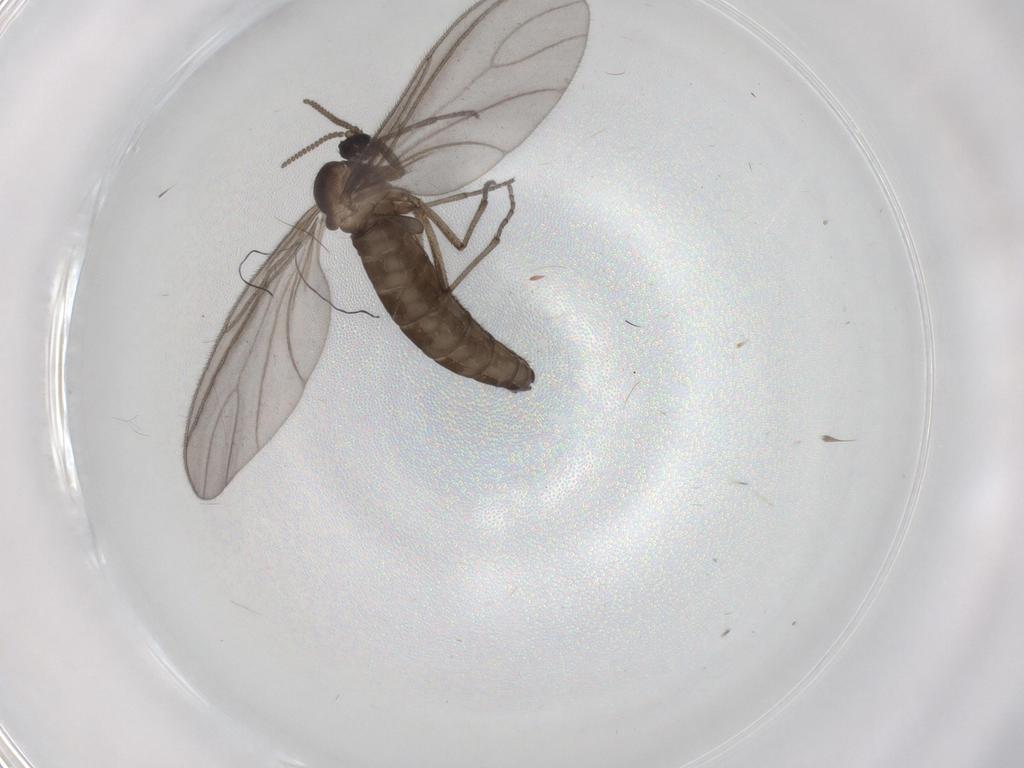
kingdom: Animalia
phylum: Arthropoda
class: Insecta
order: Diptera
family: Sciaridae
